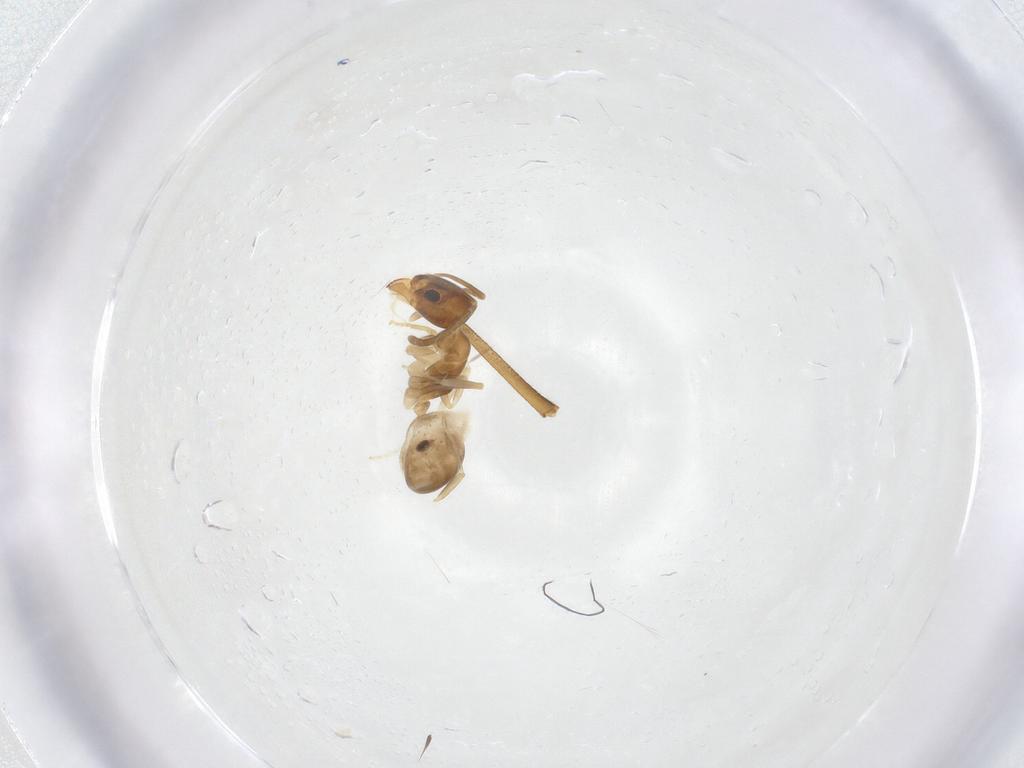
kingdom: Animalia
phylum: Arthropoda
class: Insecta
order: Hymenoptera
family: Formicidae
